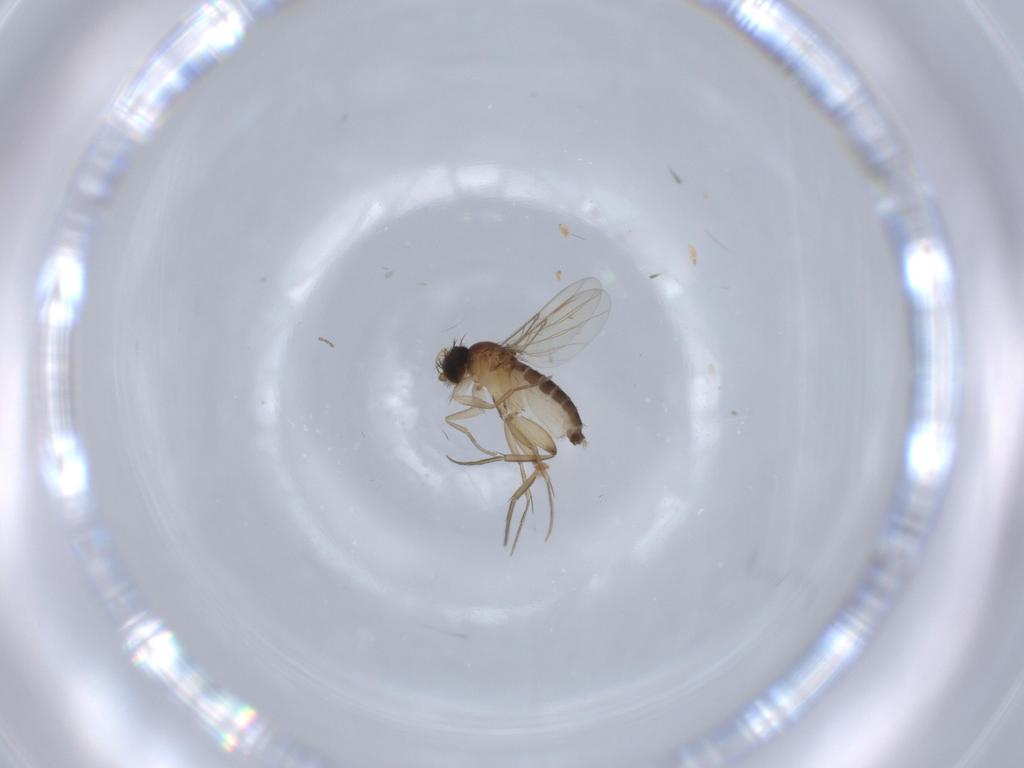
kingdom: Animalia
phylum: Arthropoda
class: Insecta
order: Diptera
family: Phoridae
